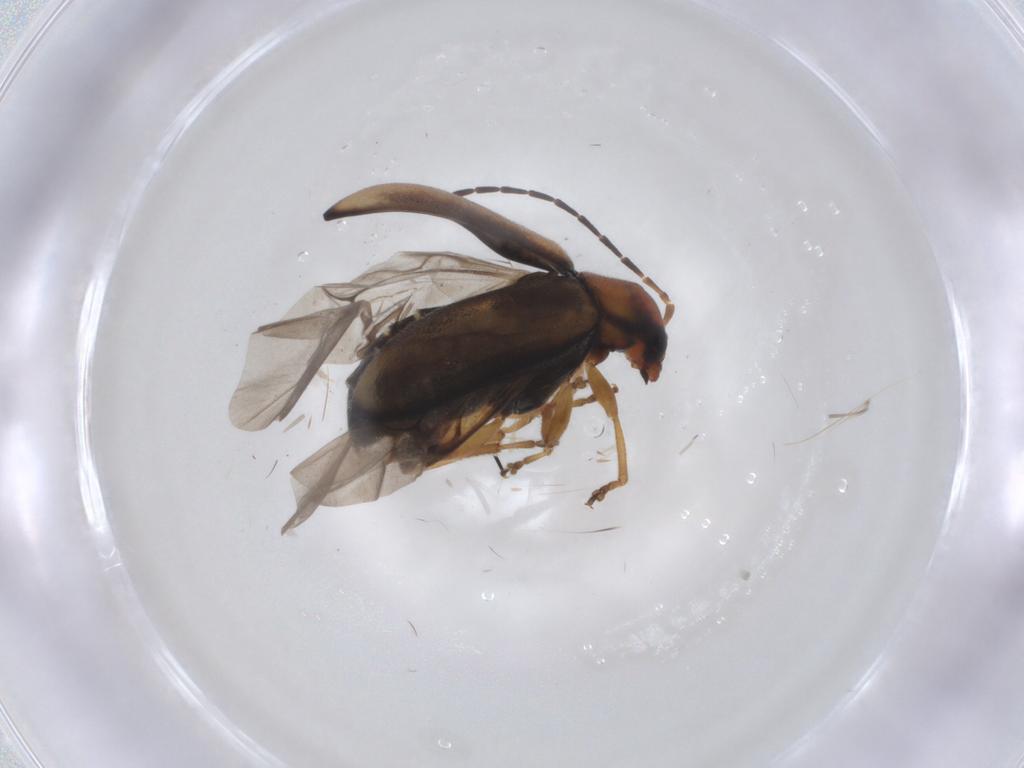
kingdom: Animalia
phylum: Arthropoda
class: Insecta
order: Coleoptera
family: Chrysomelidae
